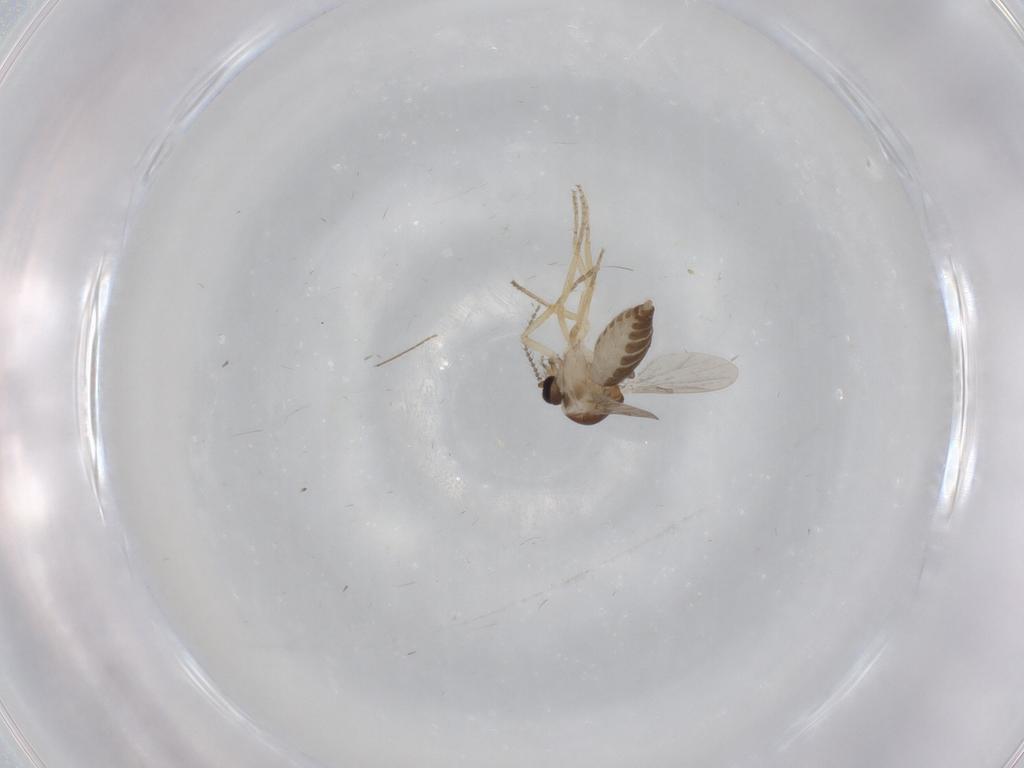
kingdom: Animalia
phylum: Arthropoda
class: Insecta
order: Diptera
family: Ceratopogonidae
